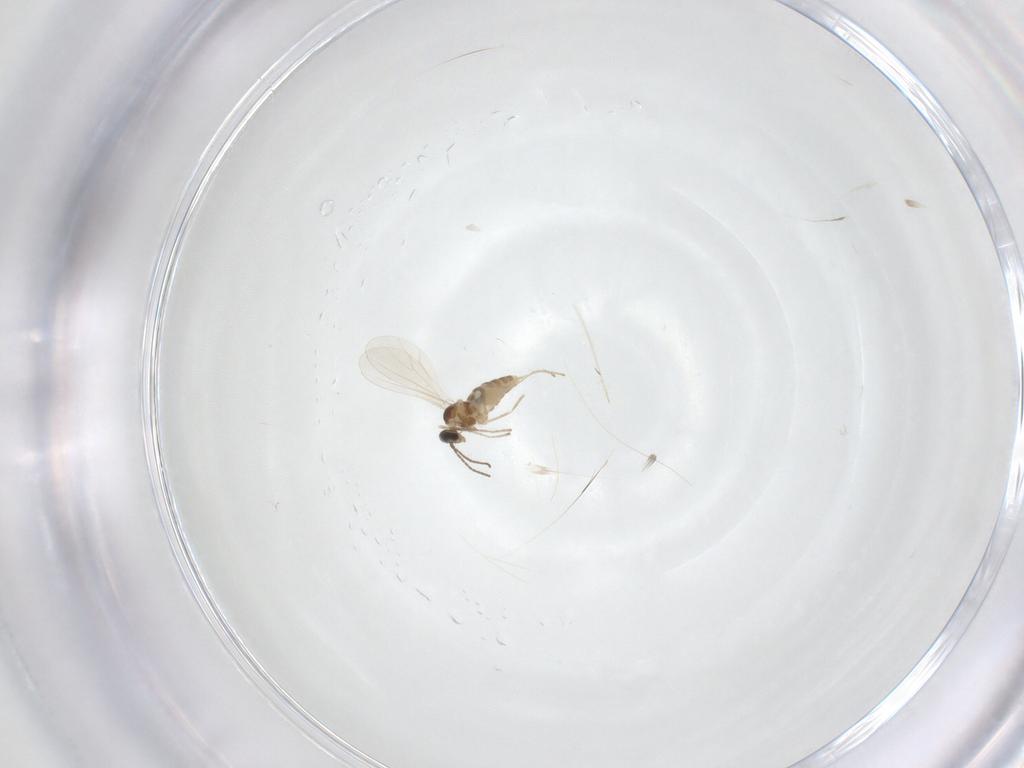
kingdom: Animalia
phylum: Arthropoda
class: Insecta
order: Diptera
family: Cecidomyiidae
